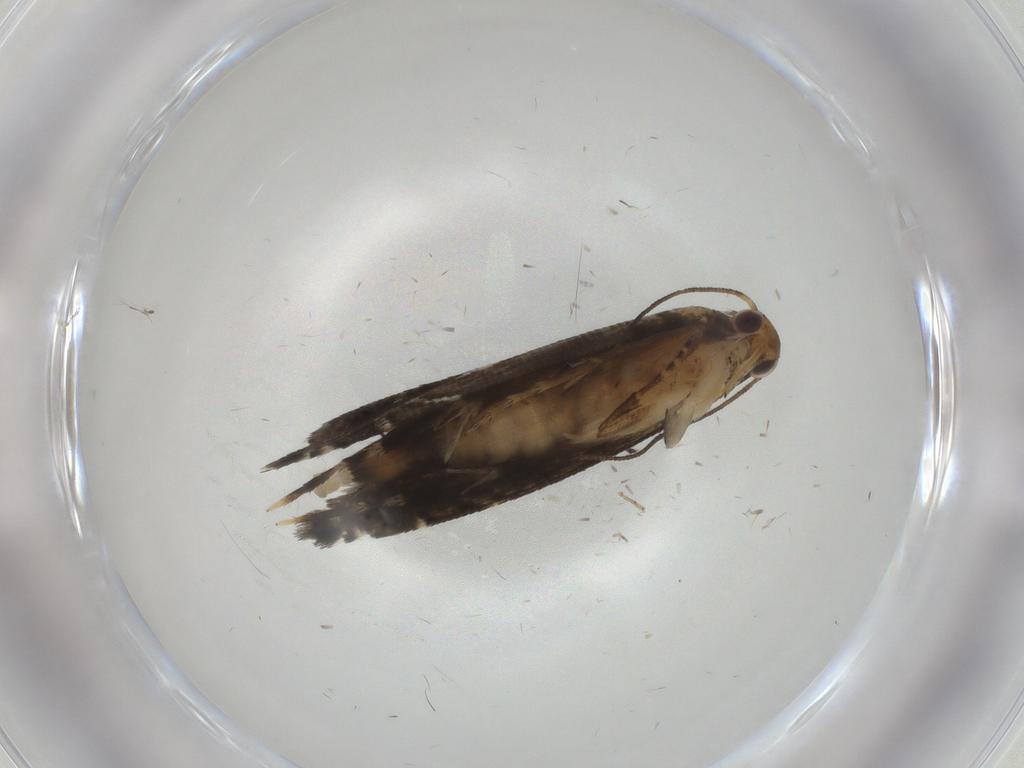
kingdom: Animalia
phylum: Arthropoda
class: Insecta
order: Lepidoptera
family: Glyphipterigidae
